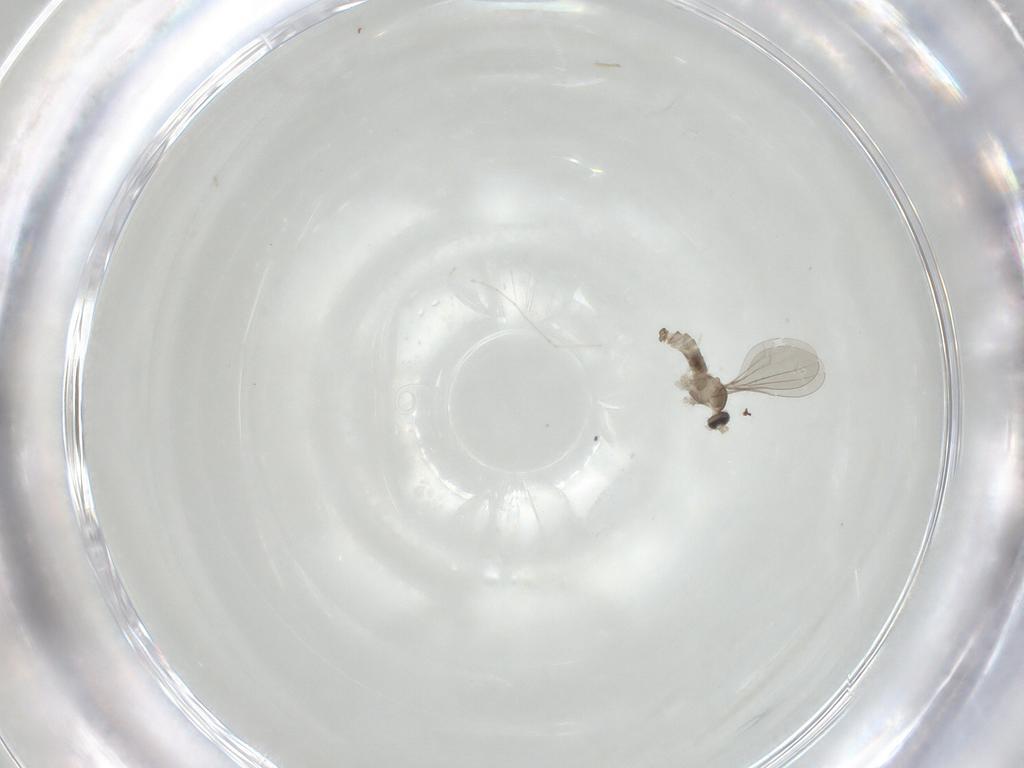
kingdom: Animalia
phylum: Arthropoda
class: Insecta
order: Diptera
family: Cecidomyiidae
